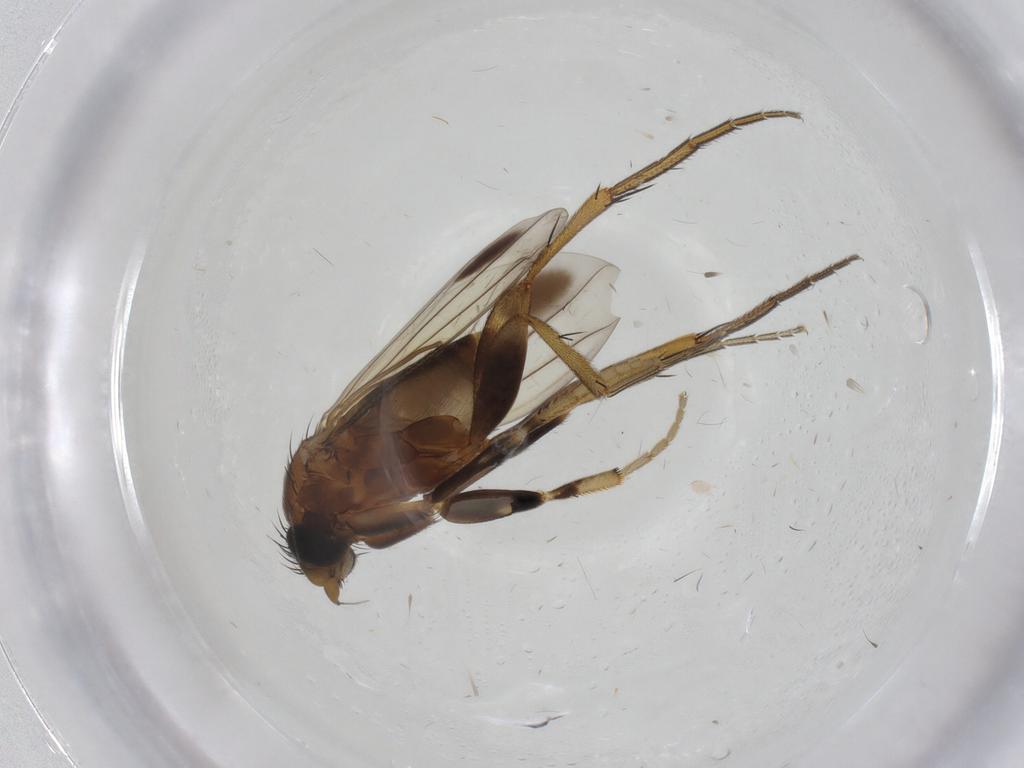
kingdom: Animalia
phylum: Arthropoda
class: Insecta
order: Diptera
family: Phoridae
